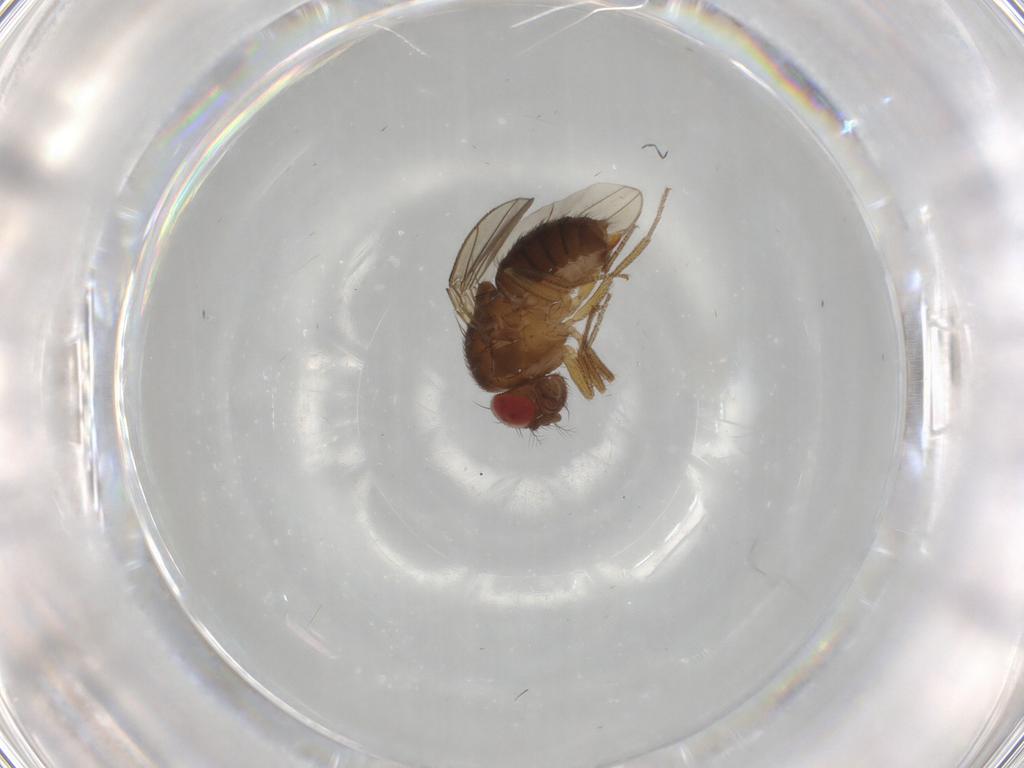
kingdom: Animalia
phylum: Arthropoda
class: Insecta
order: Diptera
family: Drosophilidae
